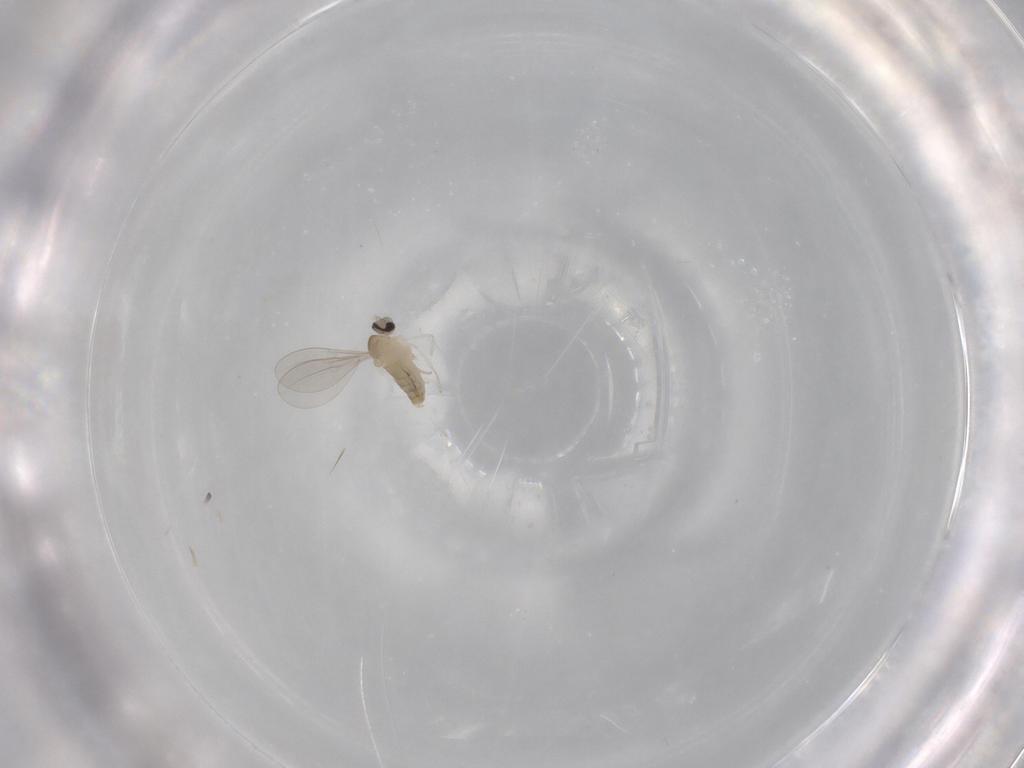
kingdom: Animalia
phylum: Arthropoda
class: Insecta
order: Diptera
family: Cecidomyiidae
